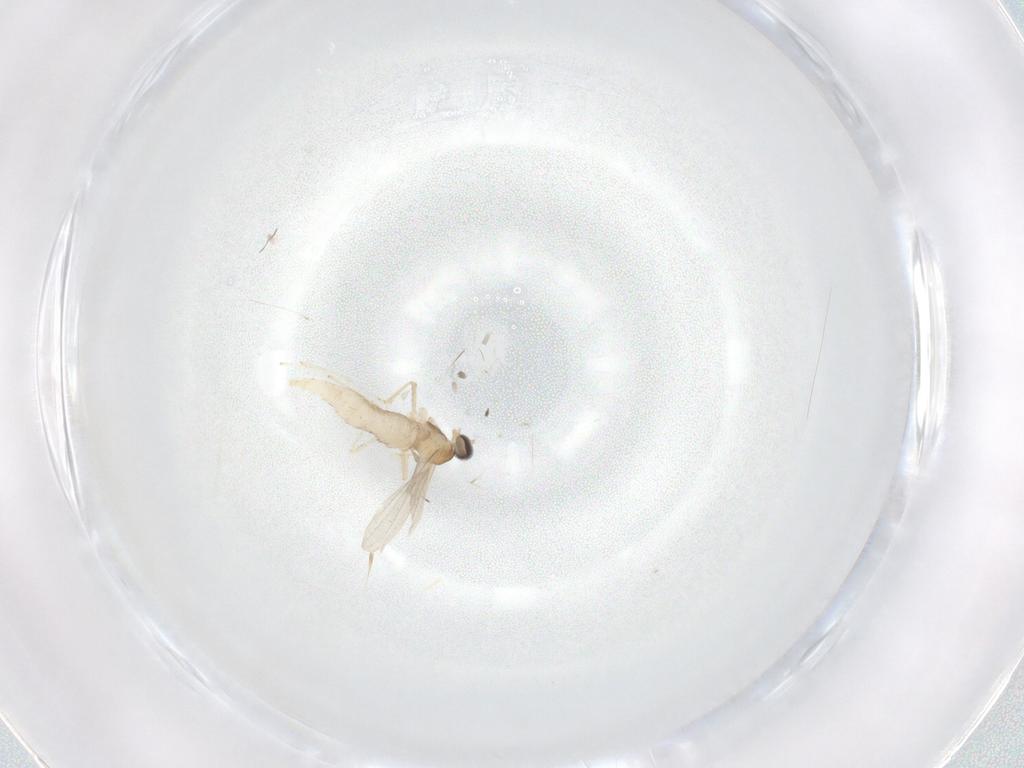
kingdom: Animalia
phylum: Arthropoda
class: Insecta
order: Diptera
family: Cecidomyiidae
